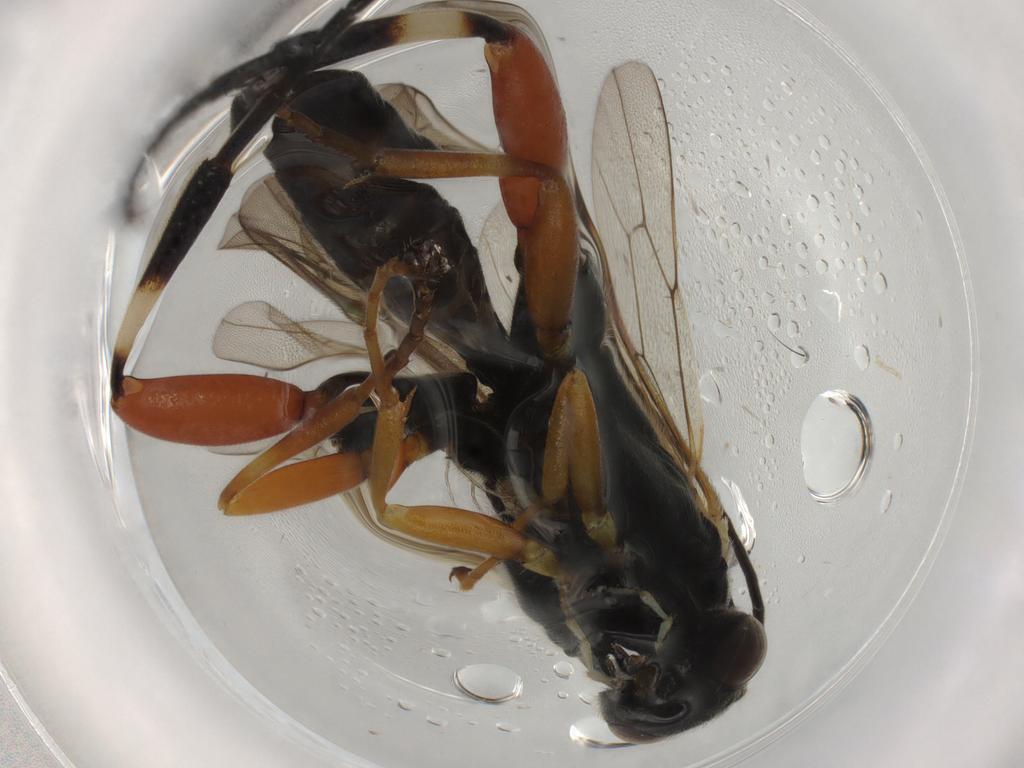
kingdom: Animalia
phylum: Arthropoda
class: Insecta
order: Hymenoptera
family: Ichneumonidae
